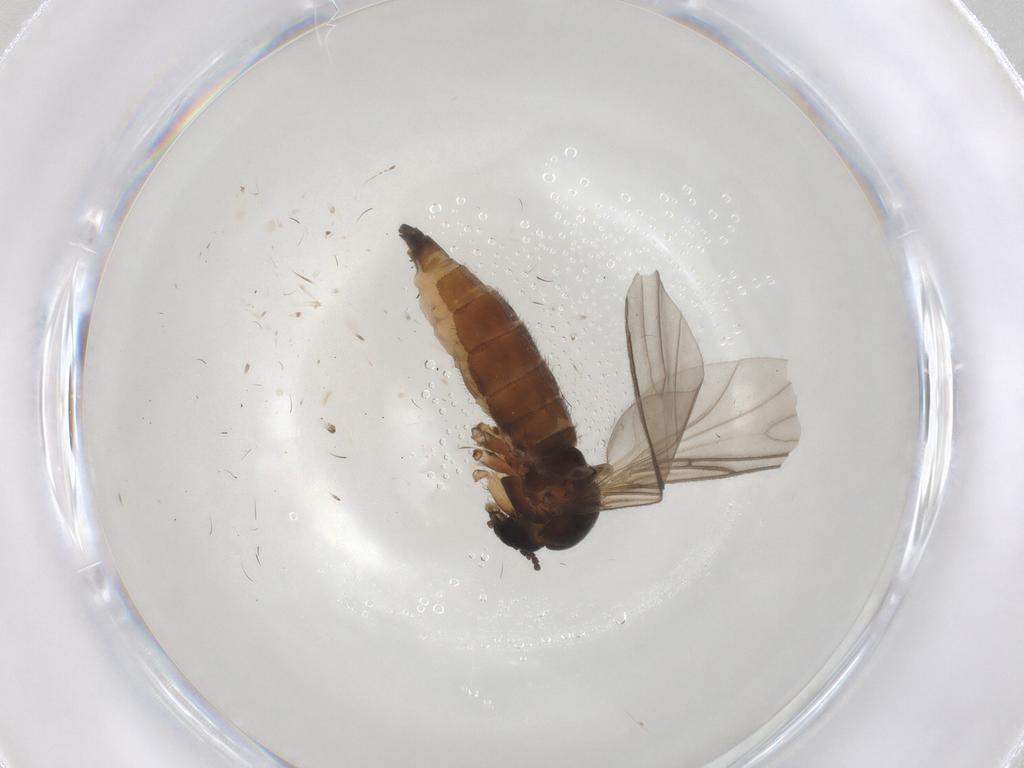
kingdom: Animalia
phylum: Arthropoda
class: Insecta
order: Diptera
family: Sciaridae
